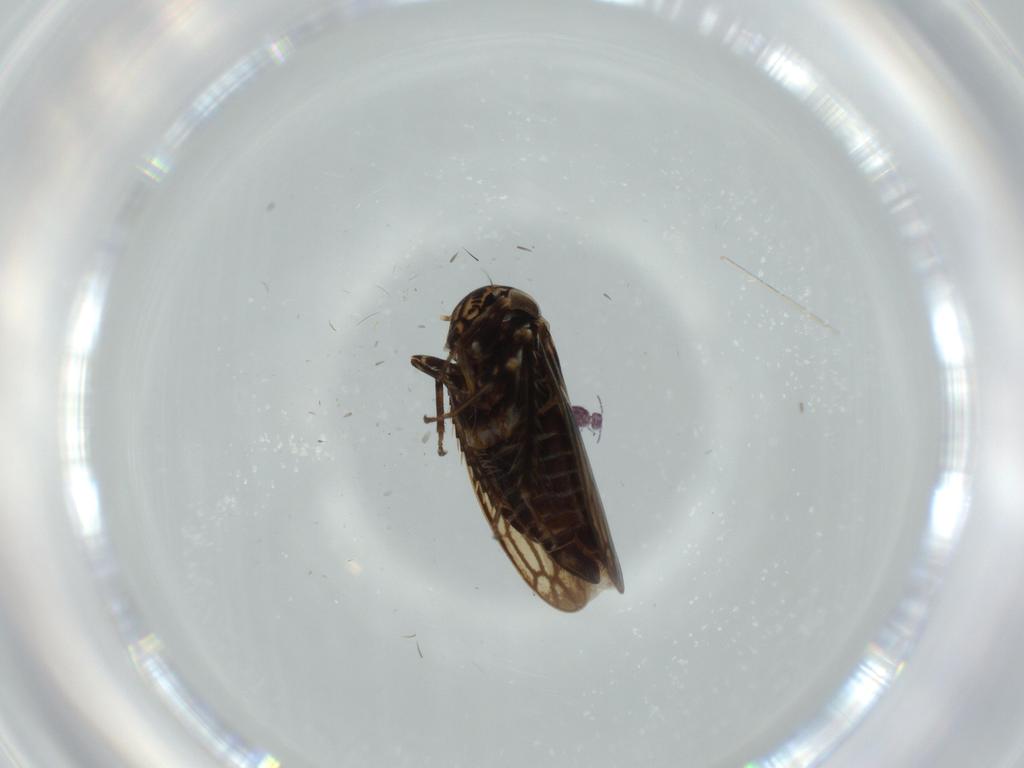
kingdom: Animalia
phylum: Arthropoda
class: Insecta
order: Hemiptera
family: Cicadellidae
